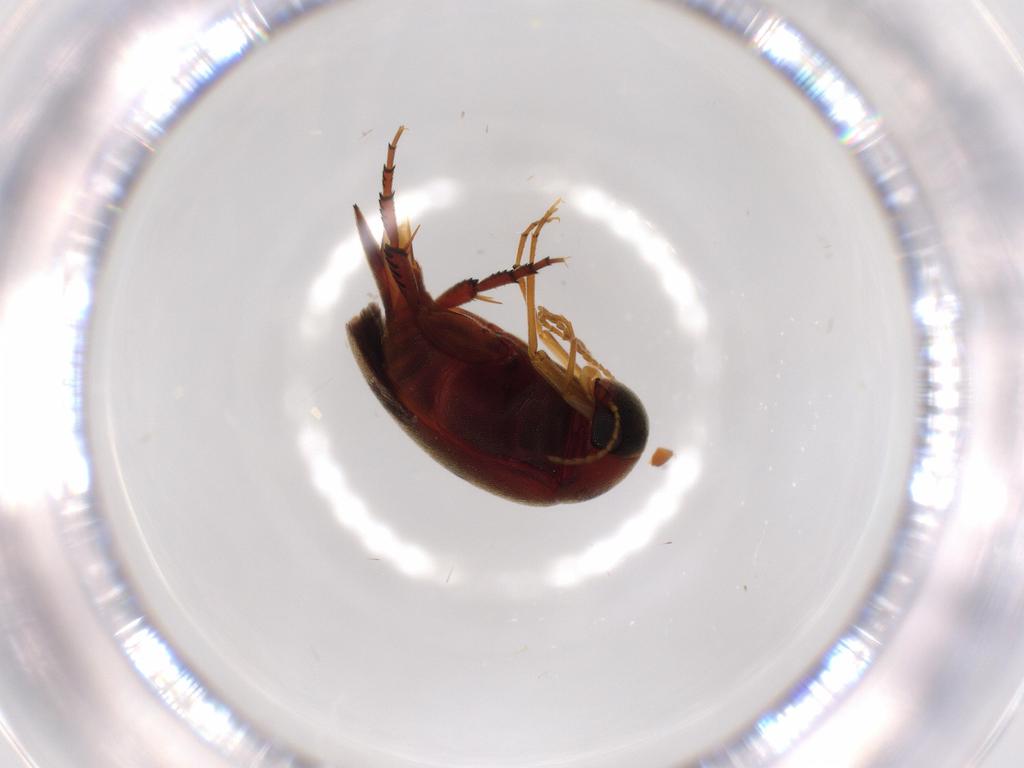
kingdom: Animalia
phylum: Arthropoda
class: Insecta
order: Coleoptera
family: Mordellidae
